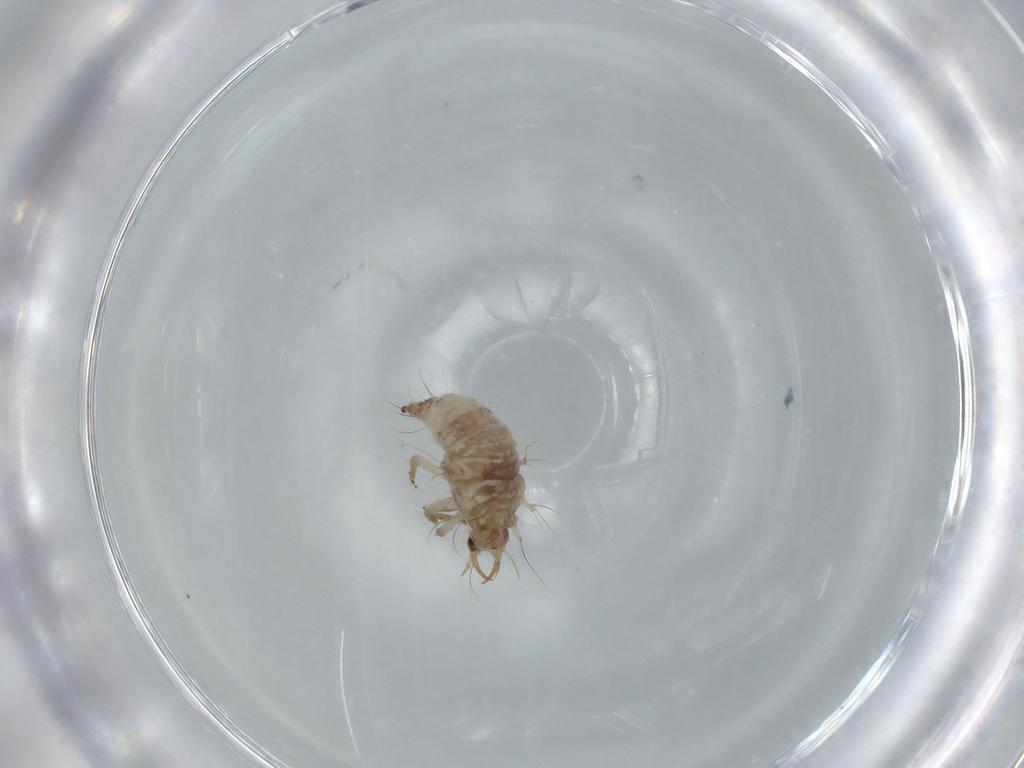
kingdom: Animalia
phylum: Arthropoda
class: Insecta
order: Neuroptera
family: Chrysopidae
